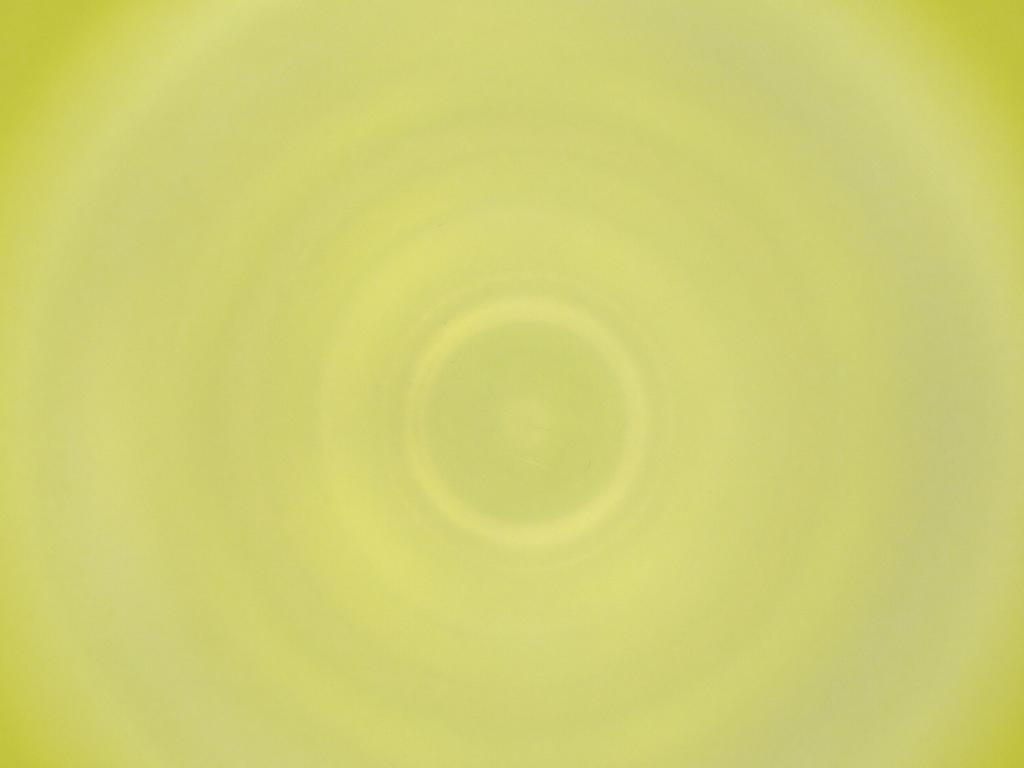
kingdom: Animalia
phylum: Arthropoda
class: Insecta
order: Diptera
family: Cecidomyiidae
